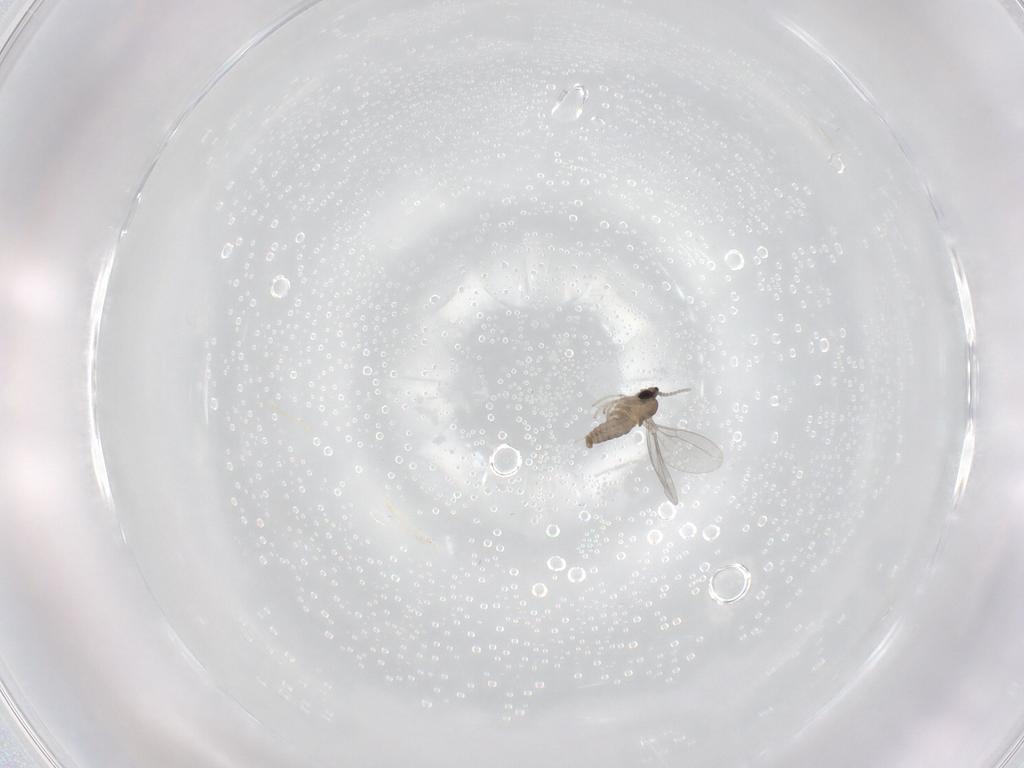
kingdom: Animalia
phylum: Arthropoda
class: Insecta
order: Diptera
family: Cecidomyiidae
